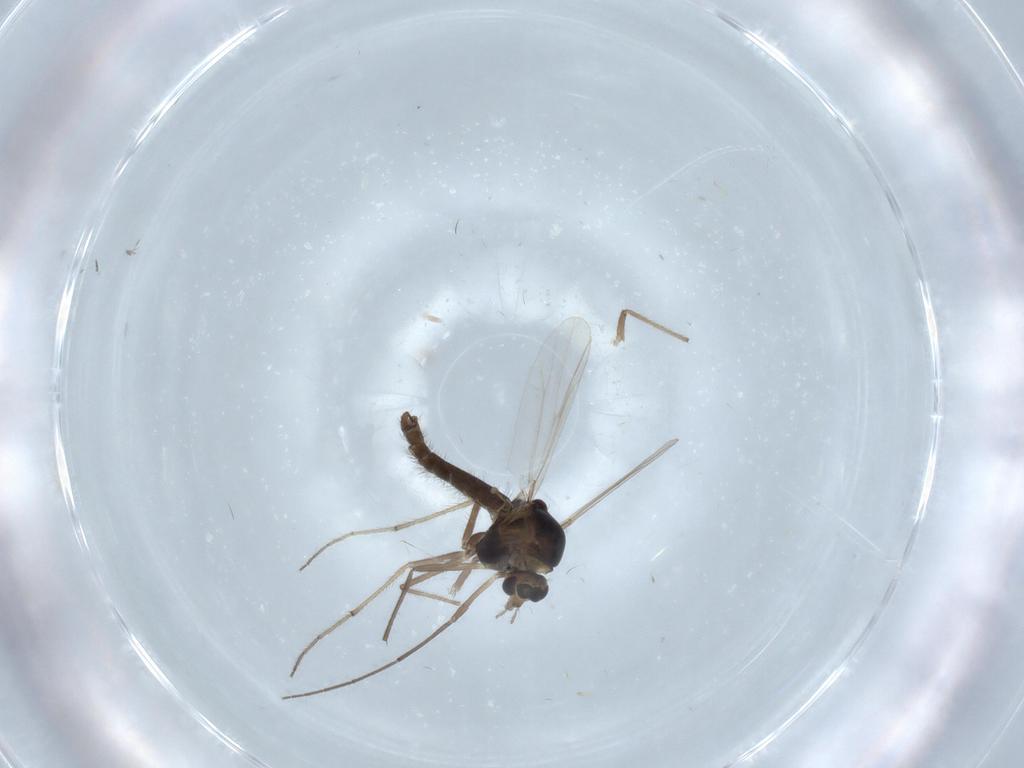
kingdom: Animalia
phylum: Arthropoda
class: Insecta
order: Diptera
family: Chironomidae
